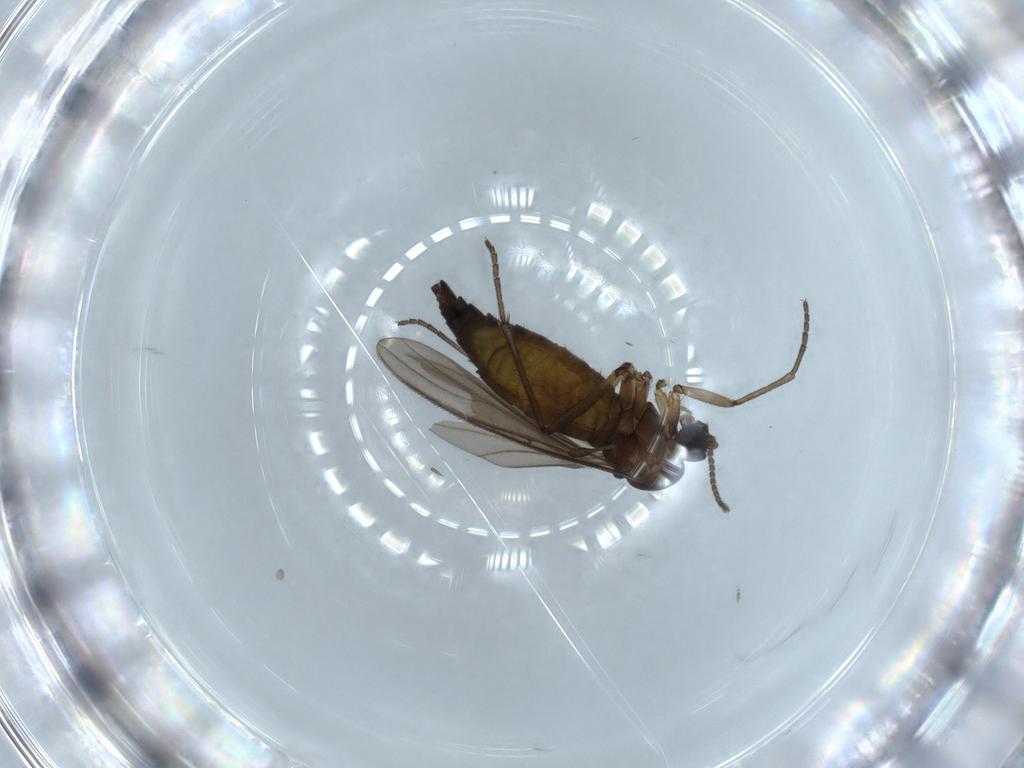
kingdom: Animalia
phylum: Arthropoda
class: Insecta
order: Diptera
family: Sciaridae
